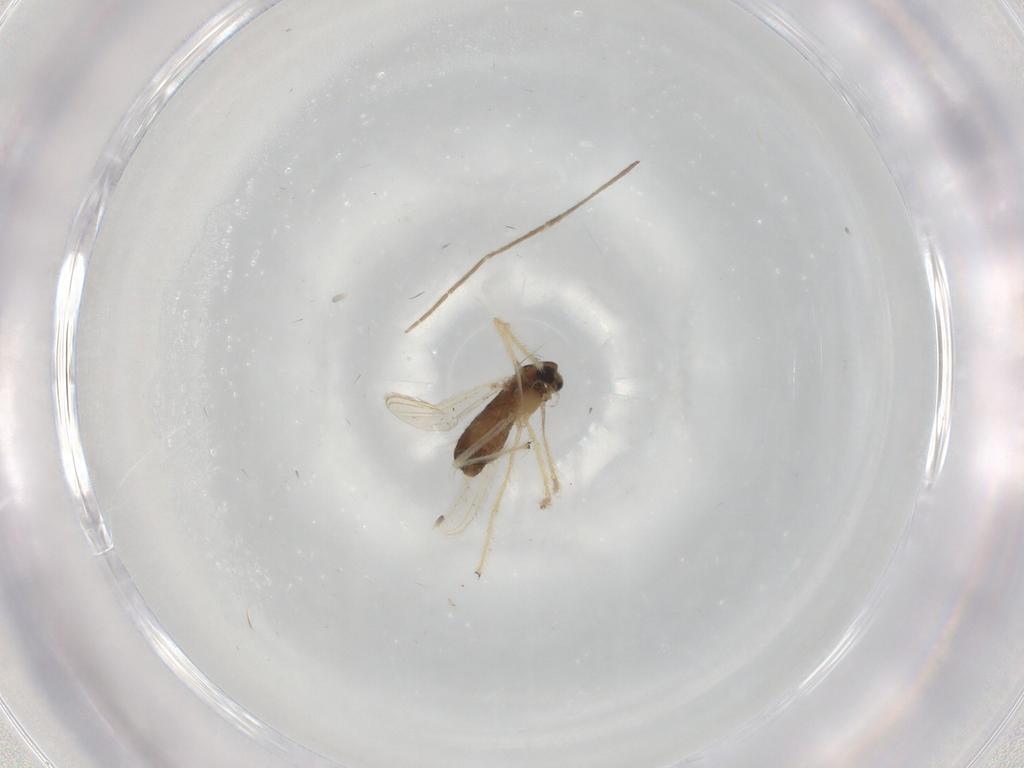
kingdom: Animalia
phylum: Arthropoda
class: Insecta
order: Diptera
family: Chironomidae
